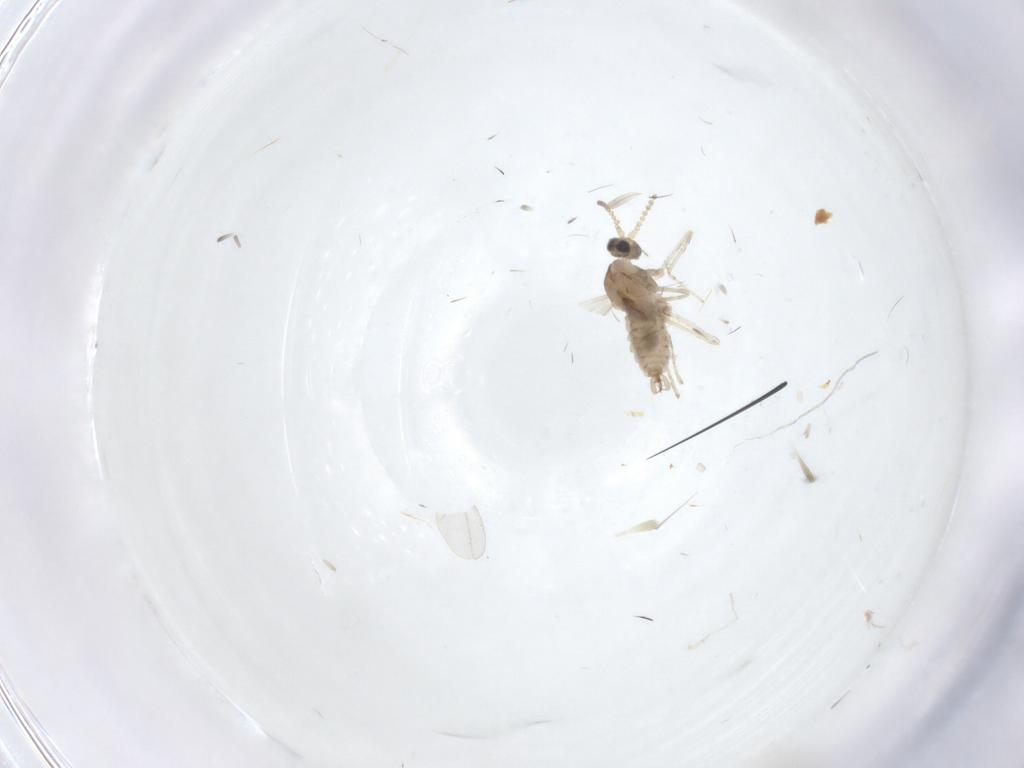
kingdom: Animalia
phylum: Arthropoda
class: Insecta
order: Diptera
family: Cecidomyiidae
